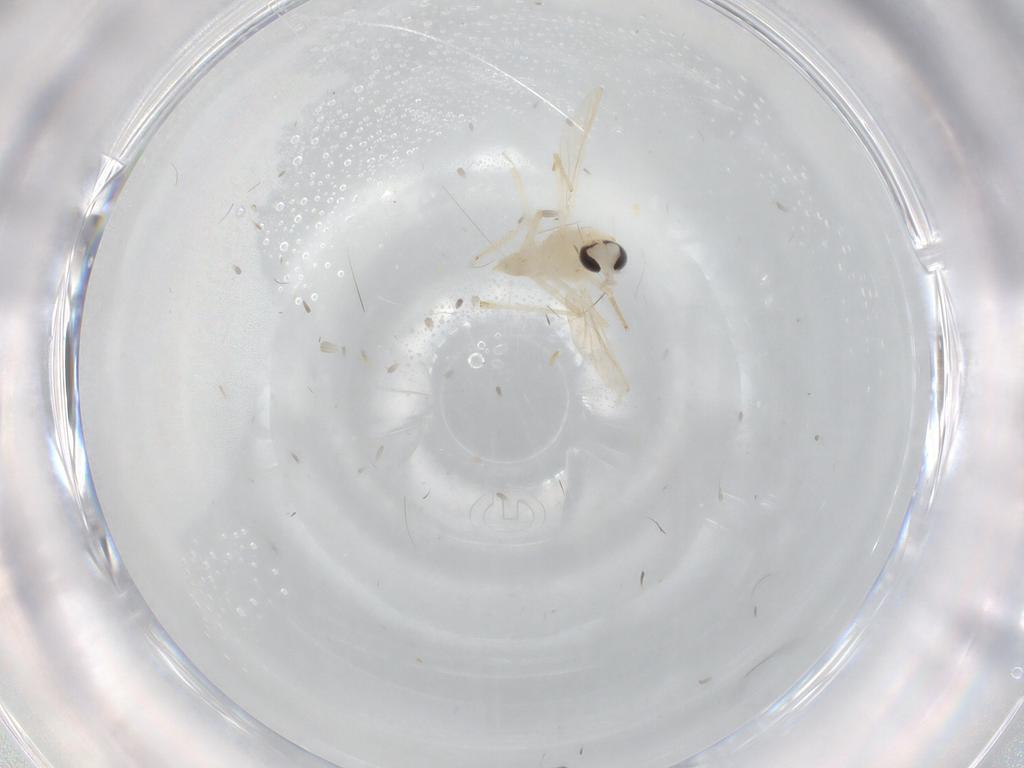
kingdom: Animalia
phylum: Arthropoda
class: Insecta
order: Diptera
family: Chironomidae
